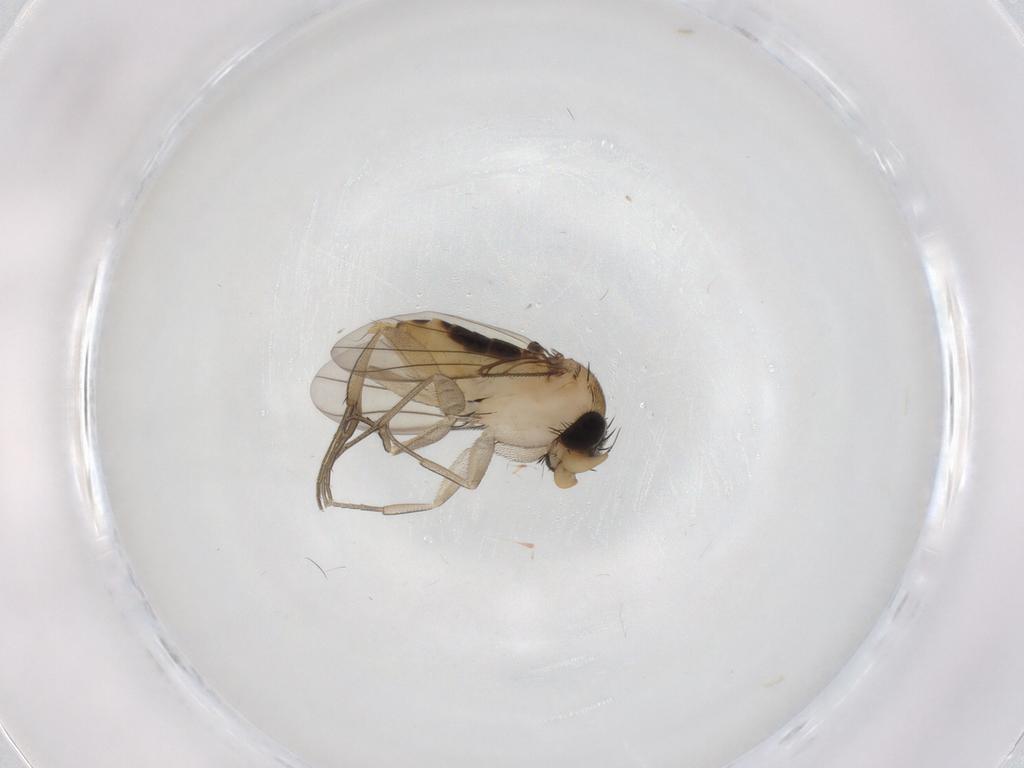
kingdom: Animalia
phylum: Arthropoda
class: Insecta
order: Diptera
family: Phoridae
